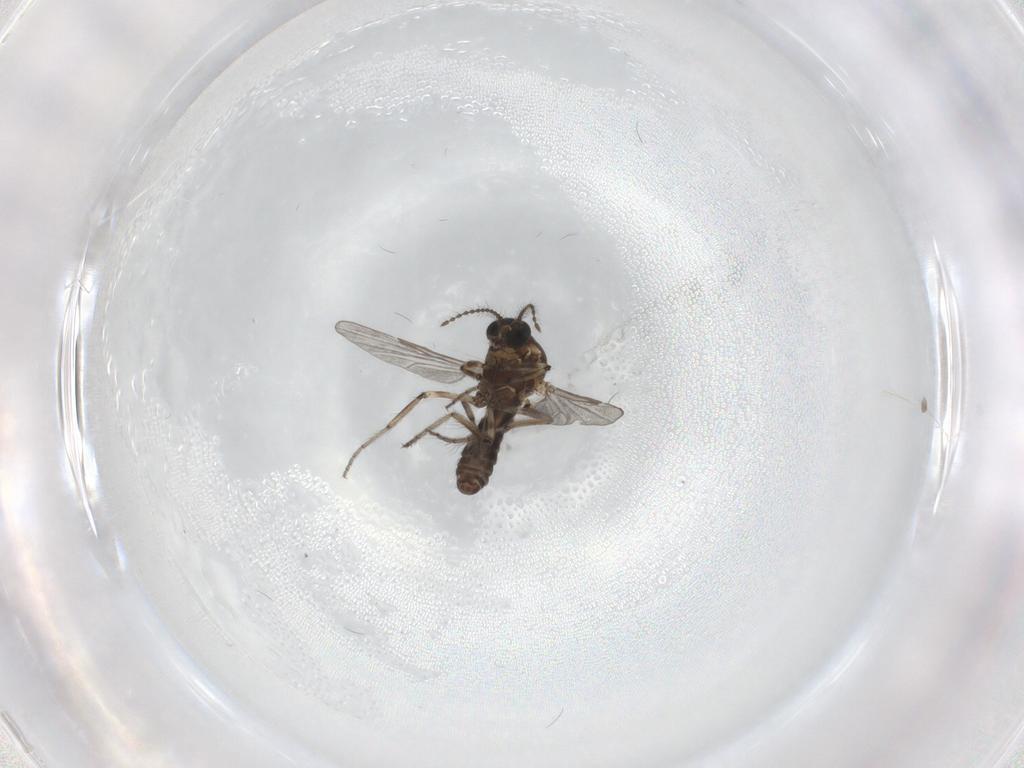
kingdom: Animalia
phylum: Arthropoda
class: Insecta
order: Diptera
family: Ceratopogonidae
